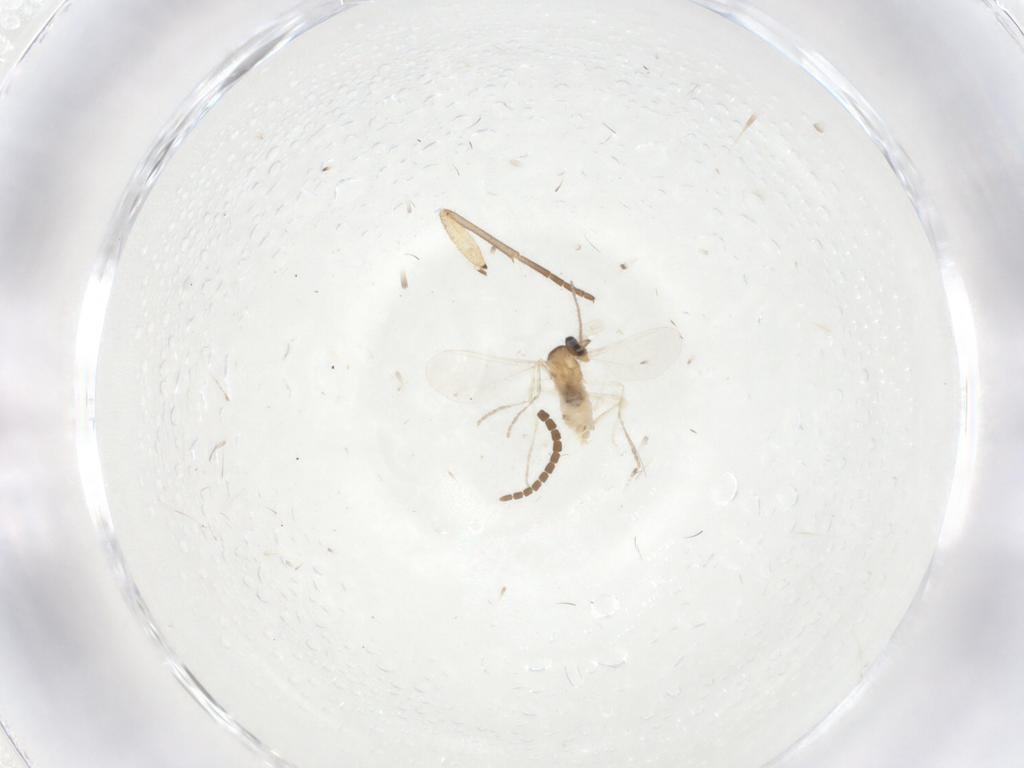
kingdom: Animalia
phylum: Arthropoda
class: Insecta
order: Diptera
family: Cecidomyiidae
